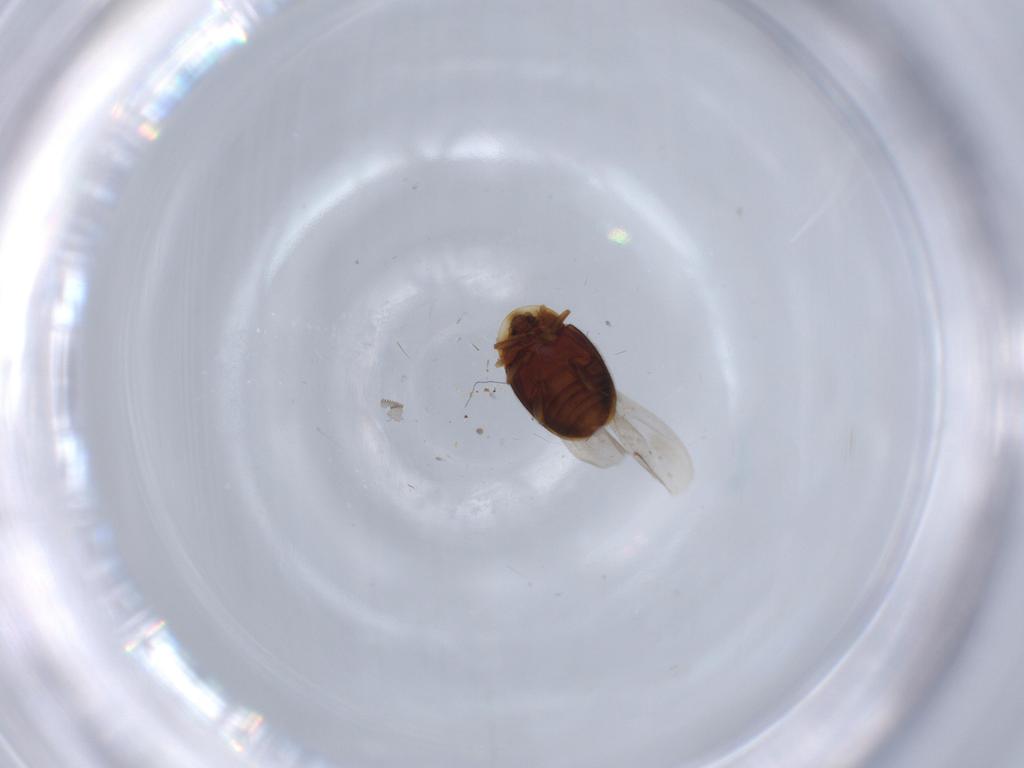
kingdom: Animalia
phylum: Arthropoda
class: Insecta
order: Coleoptera
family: Corylophidae
